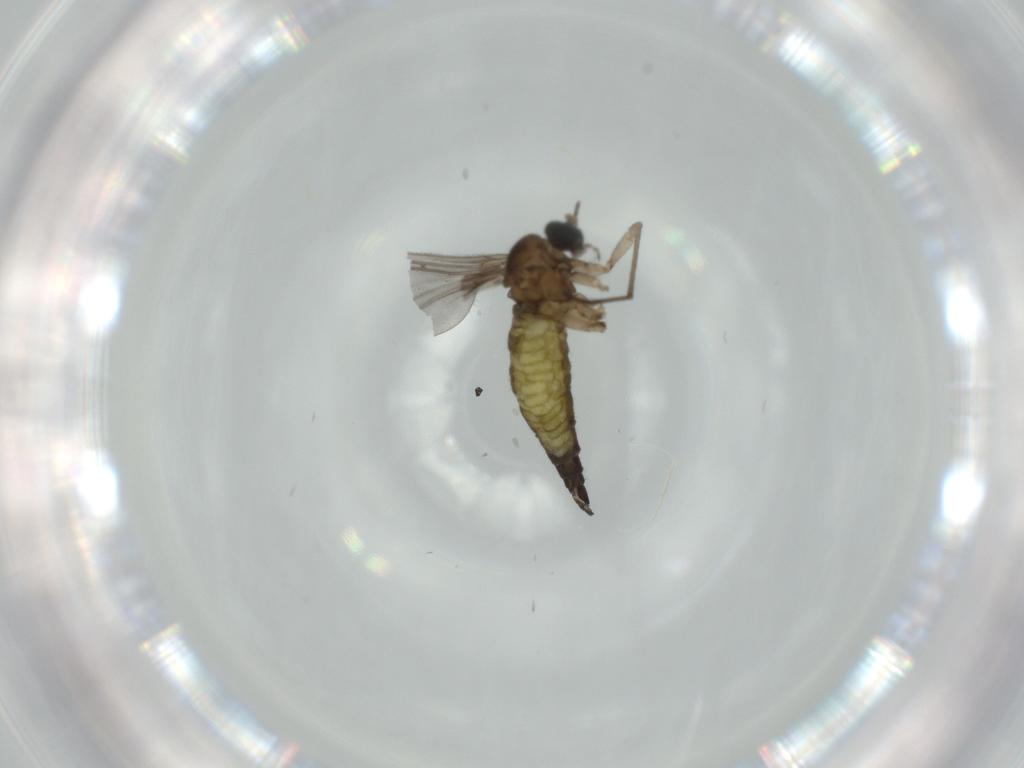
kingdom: Animalia
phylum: Arthropoda
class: Insecta
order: Diptera
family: Sciaridae
